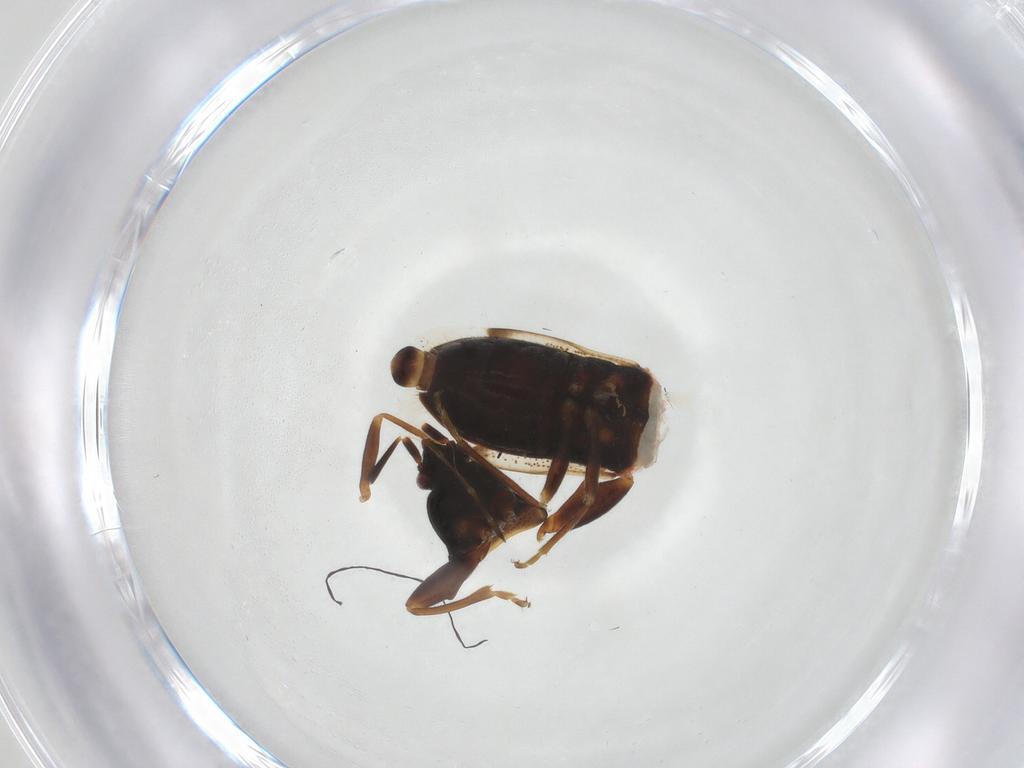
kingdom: Animalia
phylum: Arthropoda
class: Insecta
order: Hemiptera
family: Rhyparochromidae
